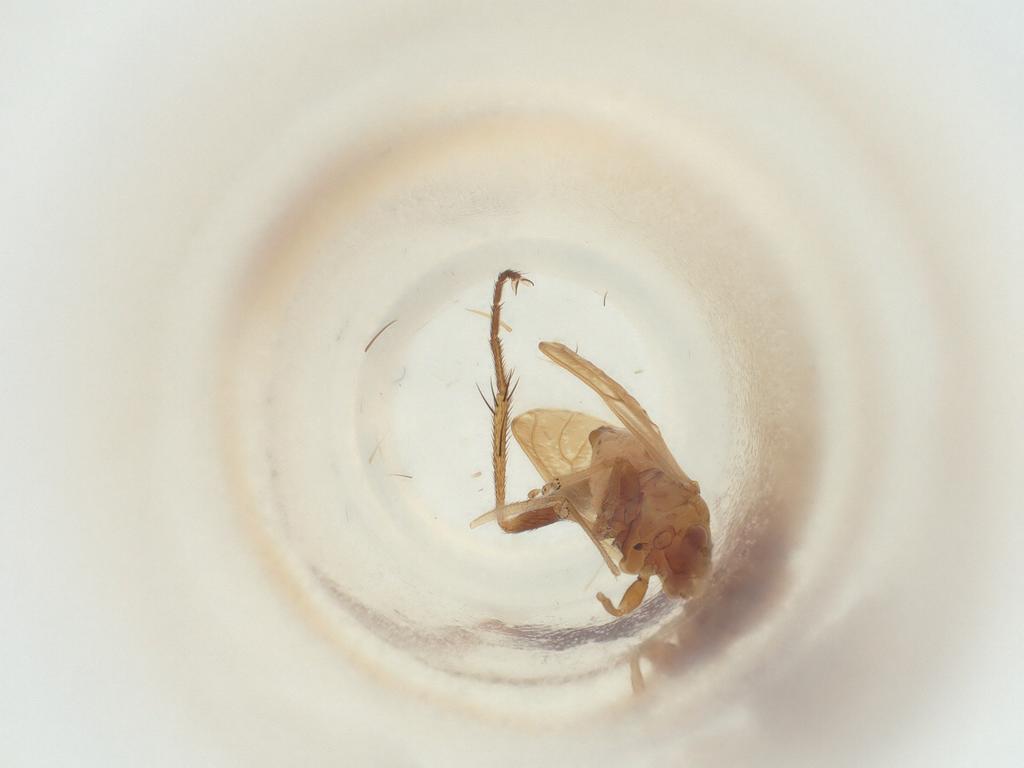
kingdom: Animalia
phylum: Arthropoda
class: Insecta
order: Diptera
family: Sciaridae
